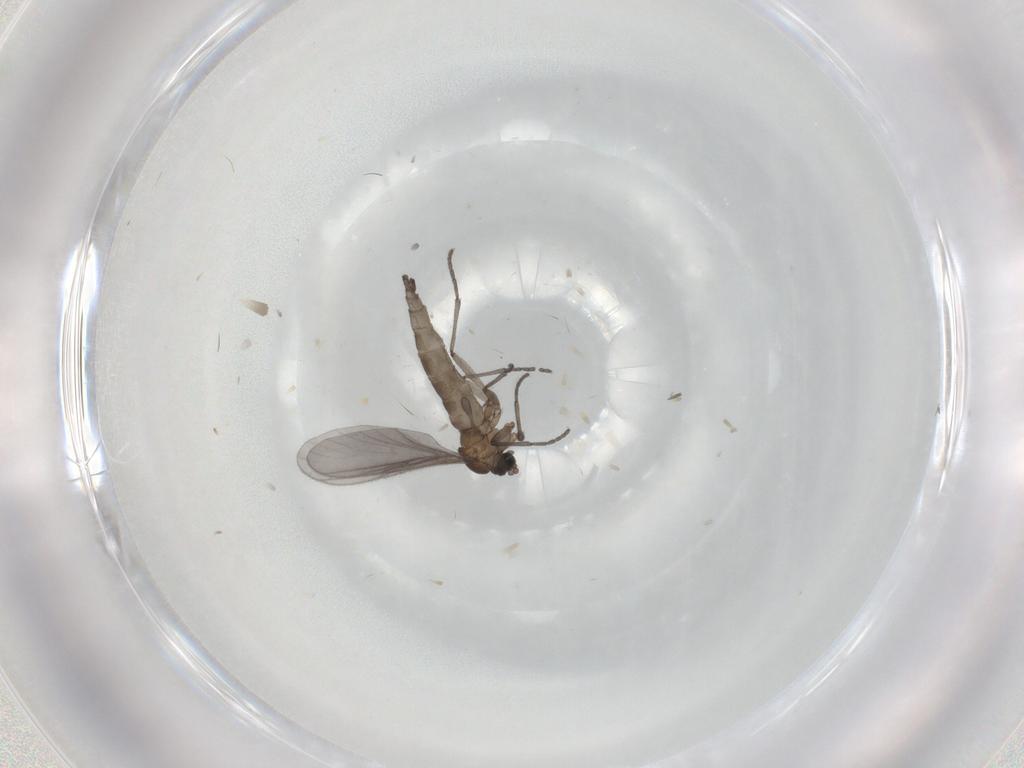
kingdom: Animalia
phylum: Arthropoda
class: Insecta
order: Diptera
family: Sciaridae
